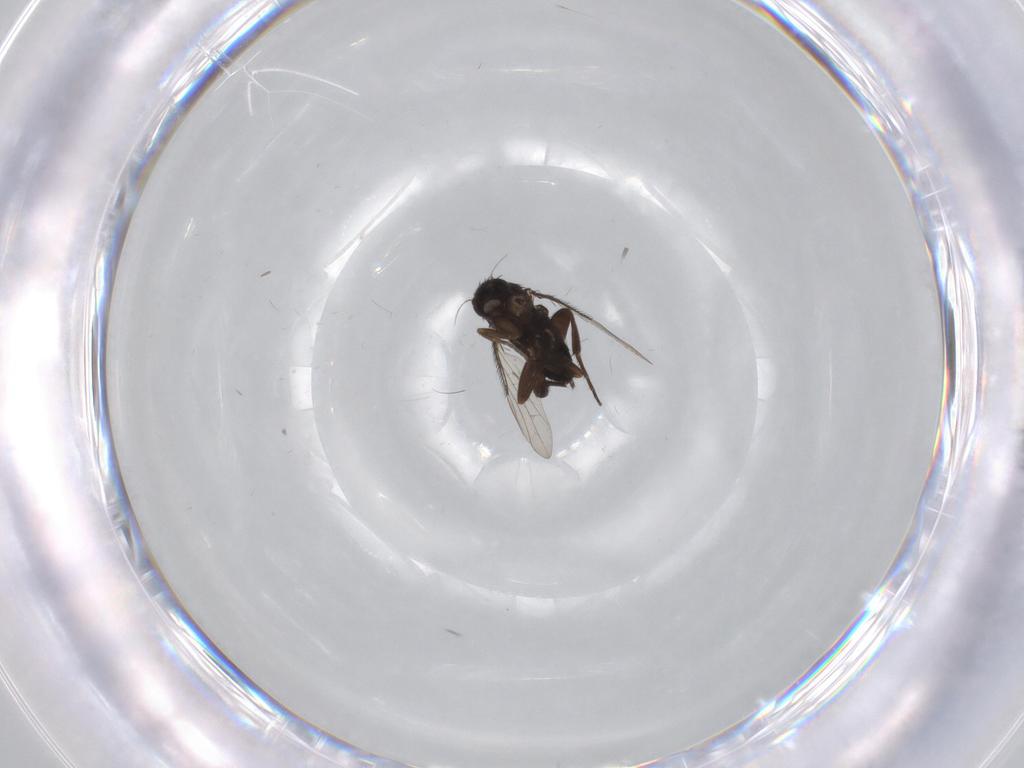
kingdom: Animalia
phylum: Arthropoda
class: Insecta
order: Diptera
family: Phoridae
